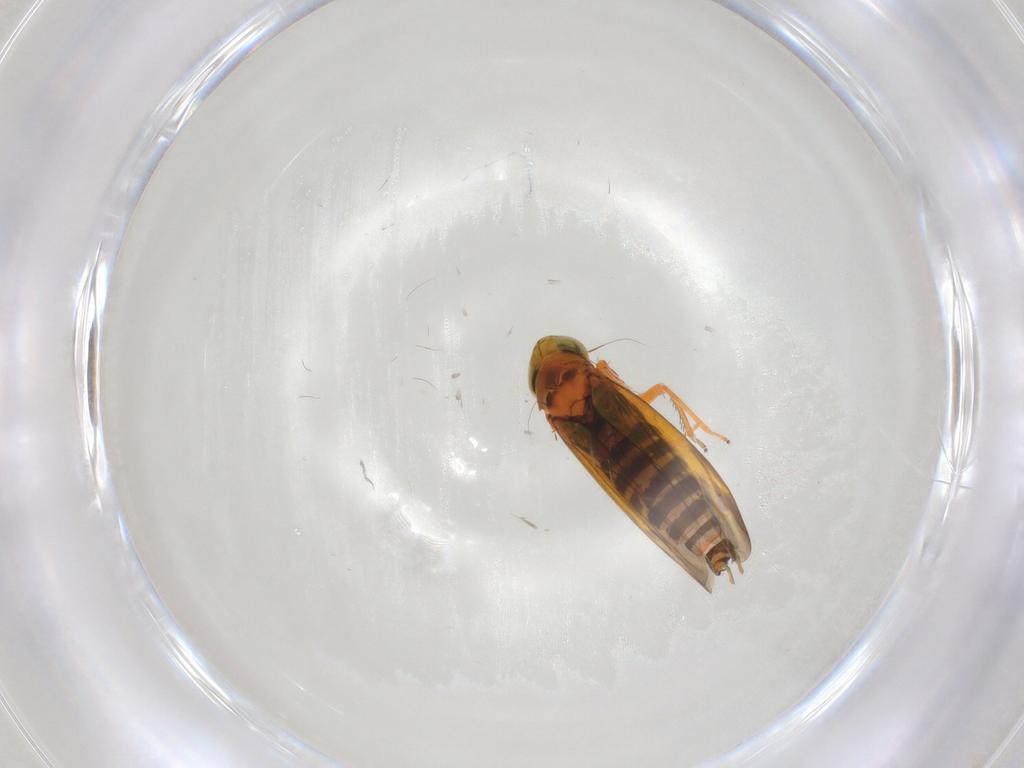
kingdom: Animalia
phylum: Arthropoda
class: Insecta
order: Hemiptera
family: Cicadellidae
